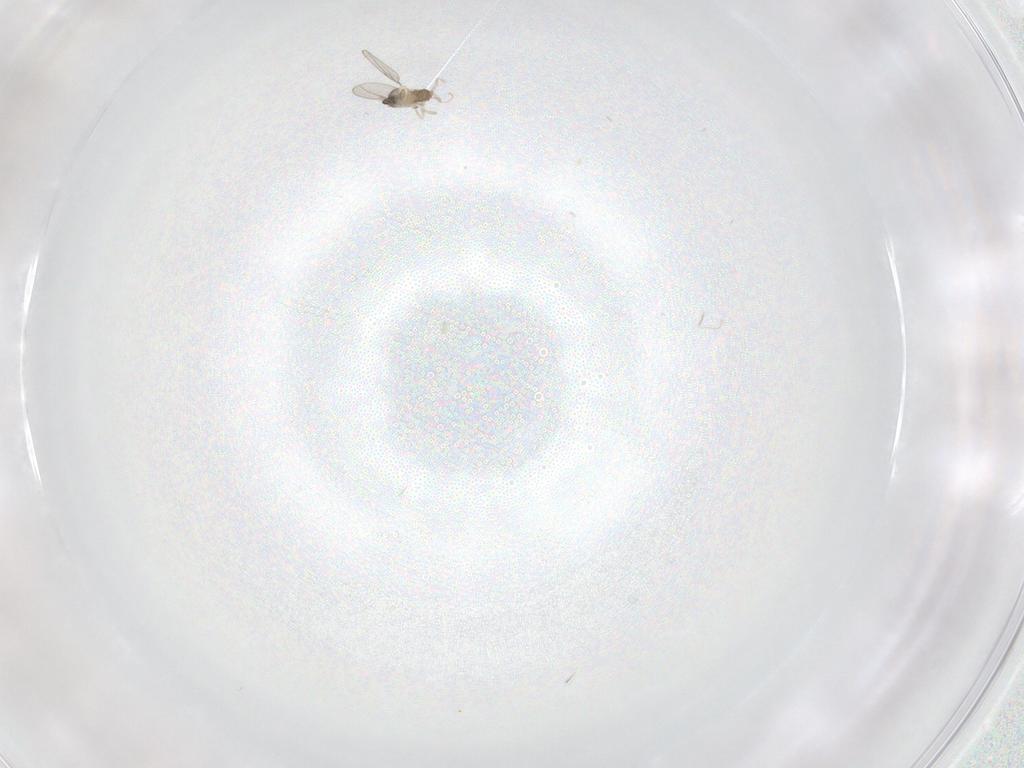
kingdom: Animalia
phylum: Arthropoda
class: Insecta
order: Diptera
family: Cecidomyiidae
